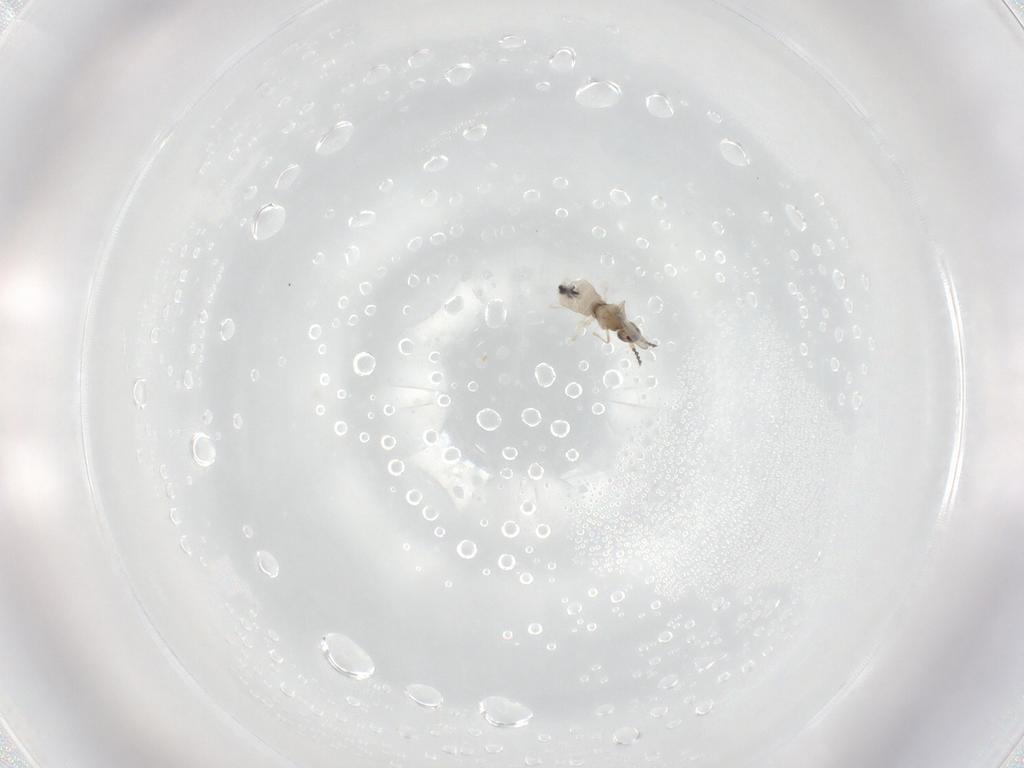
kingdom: Animalia
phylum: Arthropoda
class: Insecta
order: Diptera
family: Cecidomyiidae
